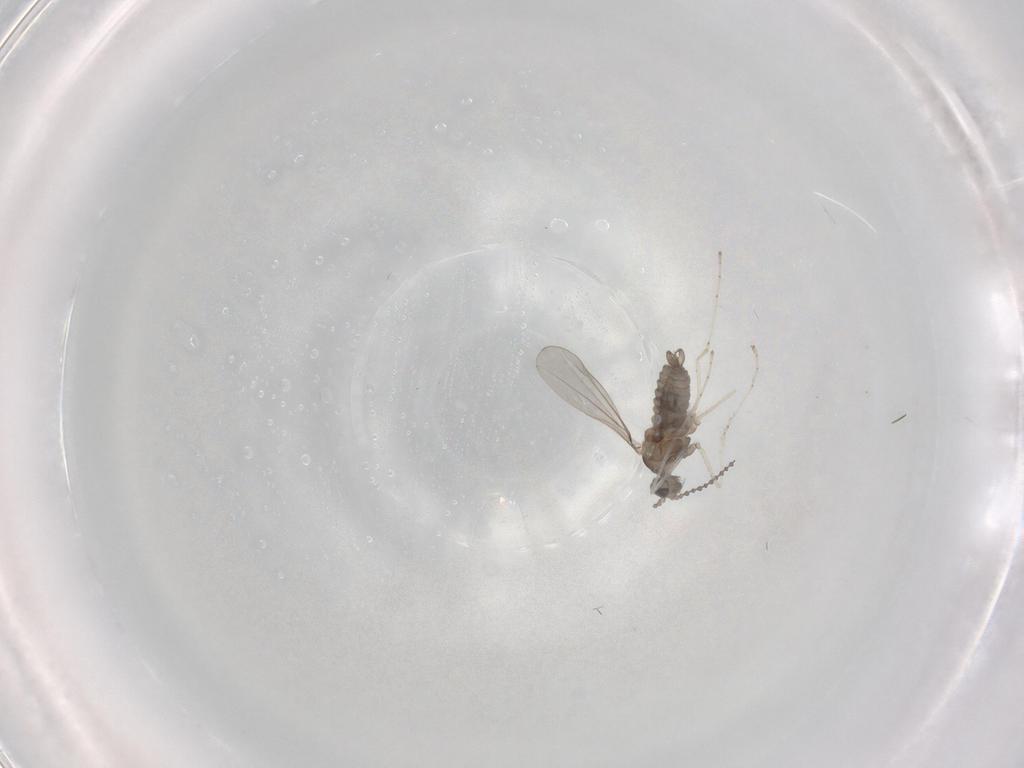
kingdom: Animalia
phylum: Arthropoda
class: Insecta
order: Diptera
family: Cecidomyiidae
